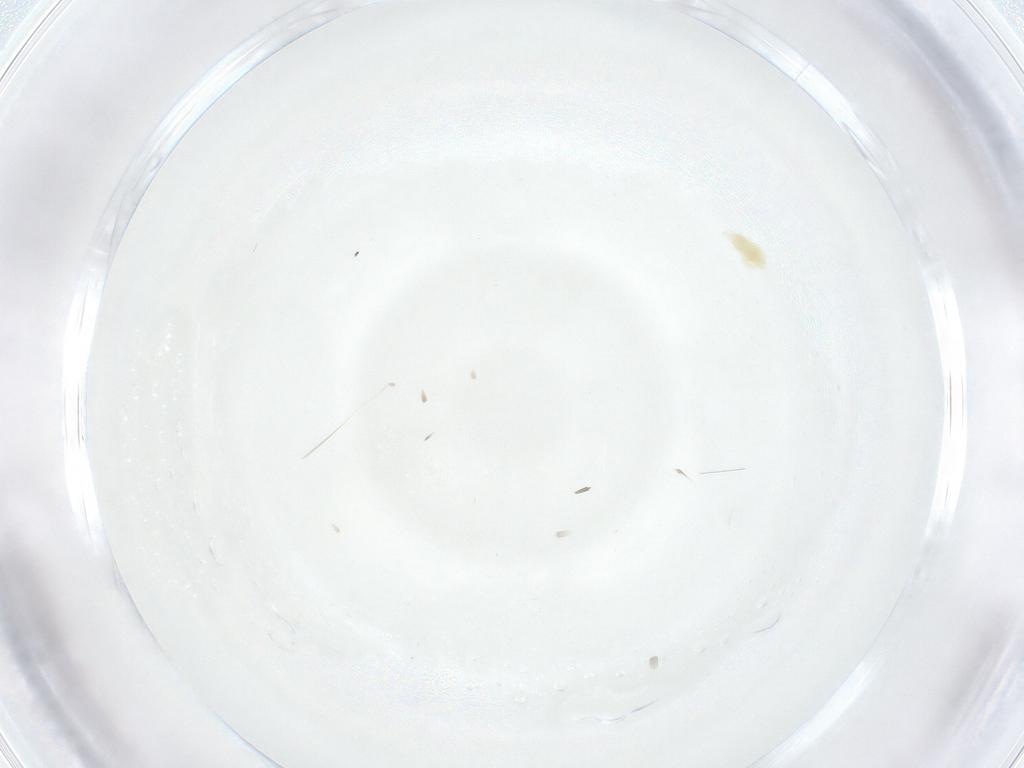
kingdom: Animalia
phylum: Arthropoda
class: Arachnida
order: Trombidiformes
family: Eupodidae
